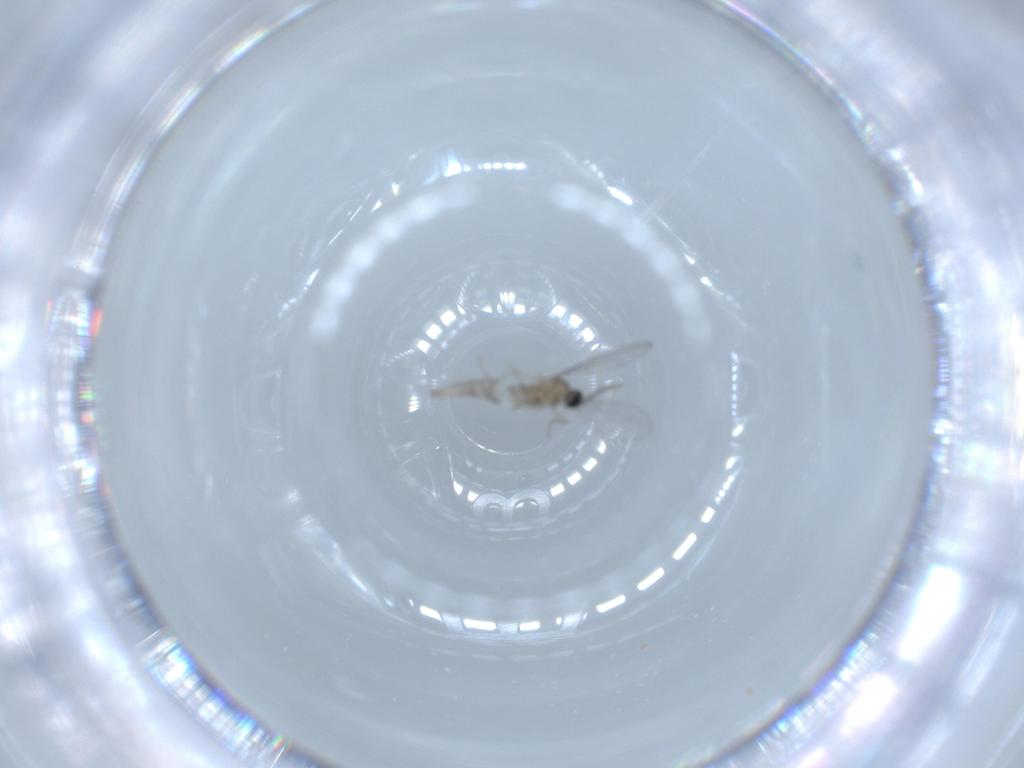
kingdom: Animalia
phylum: Arthropoda
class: Insecta
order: Diptera
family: Cecidomyiidae
